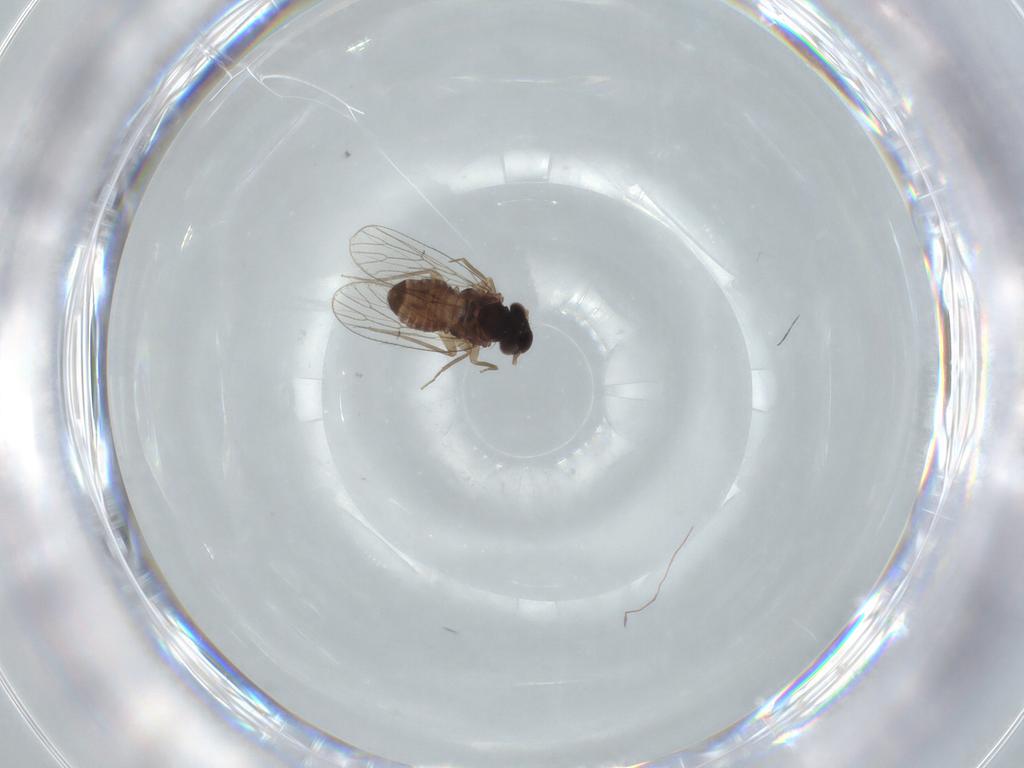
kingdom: Animalia
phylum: Arthropoda
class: Insecta
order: Psocodea
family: Psoquillidae
